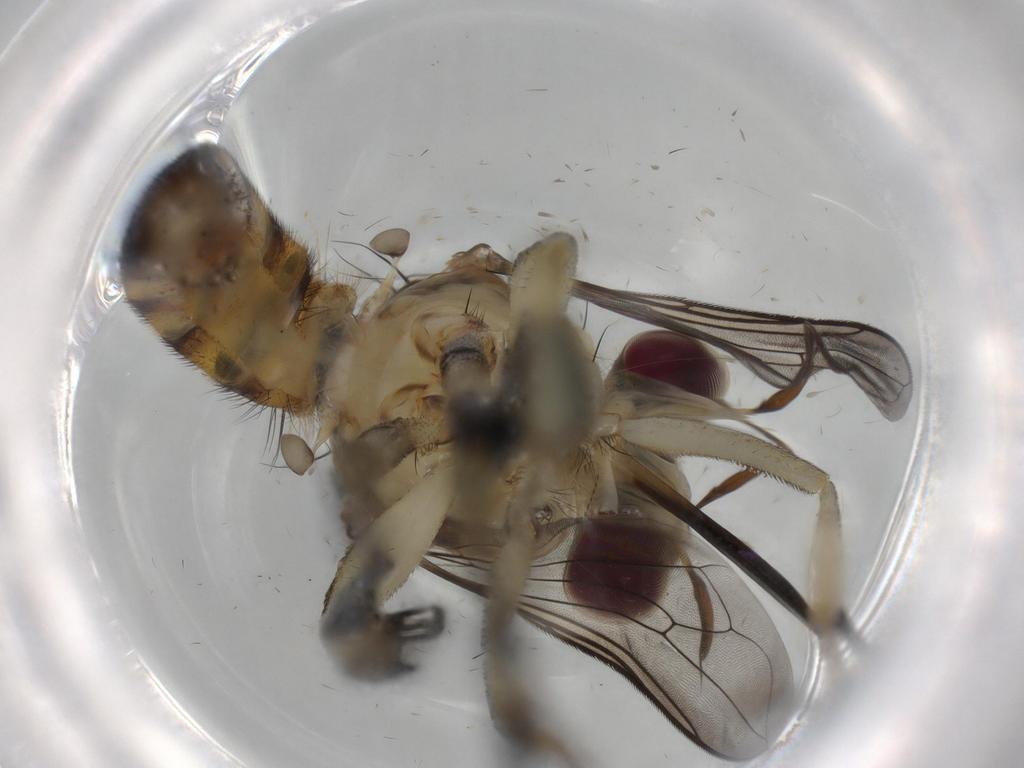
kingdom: Animalia
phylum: Arthropoda
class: Insecta
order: Diptera
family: Conopidae
